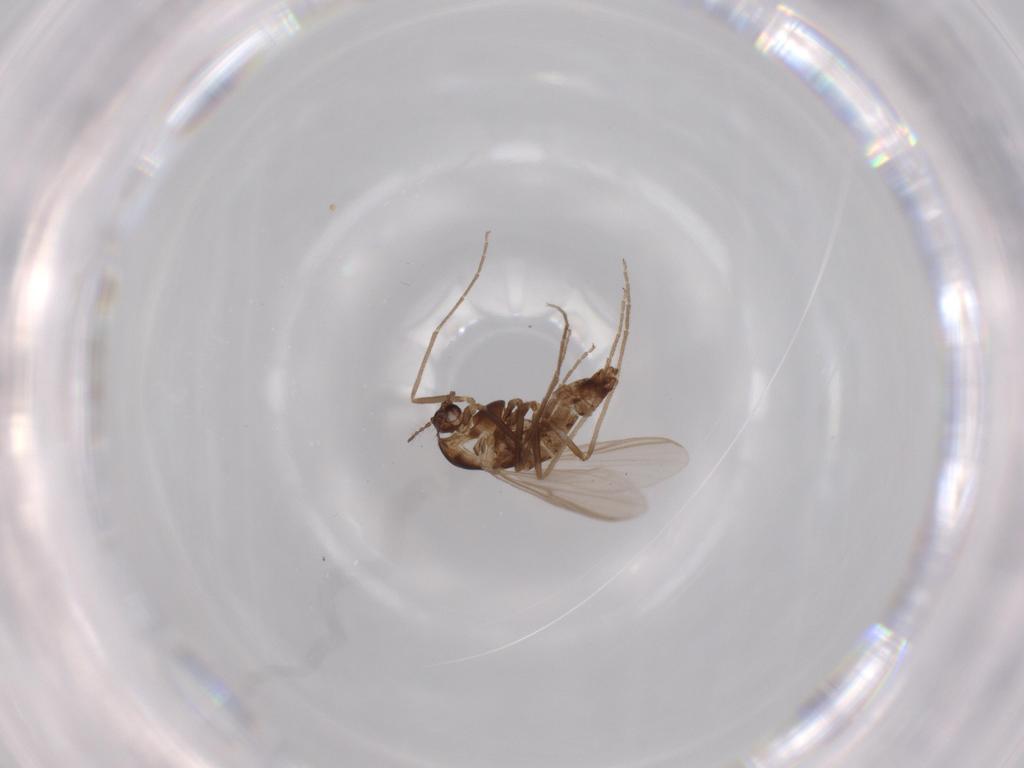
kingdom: Animalia
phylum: Arthropoda
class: Insecta
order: Diptera
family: Chironomidae
